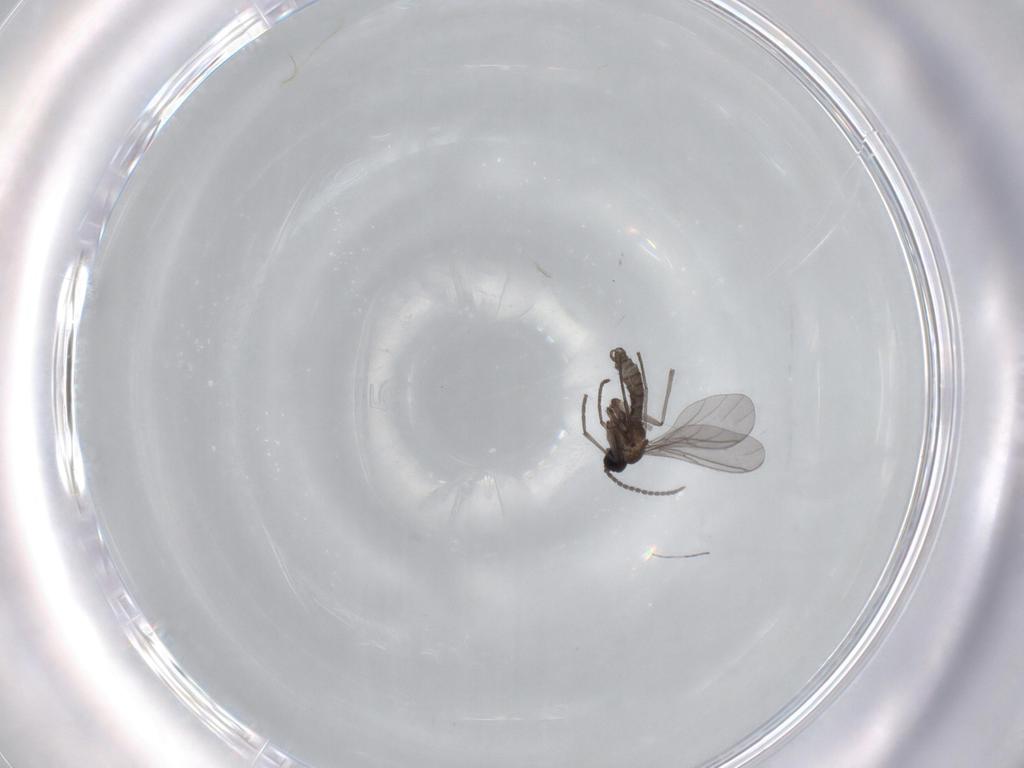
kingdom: Animalia
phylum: Arthropoda
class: Insecta
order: Diptera
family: Sciaridae
